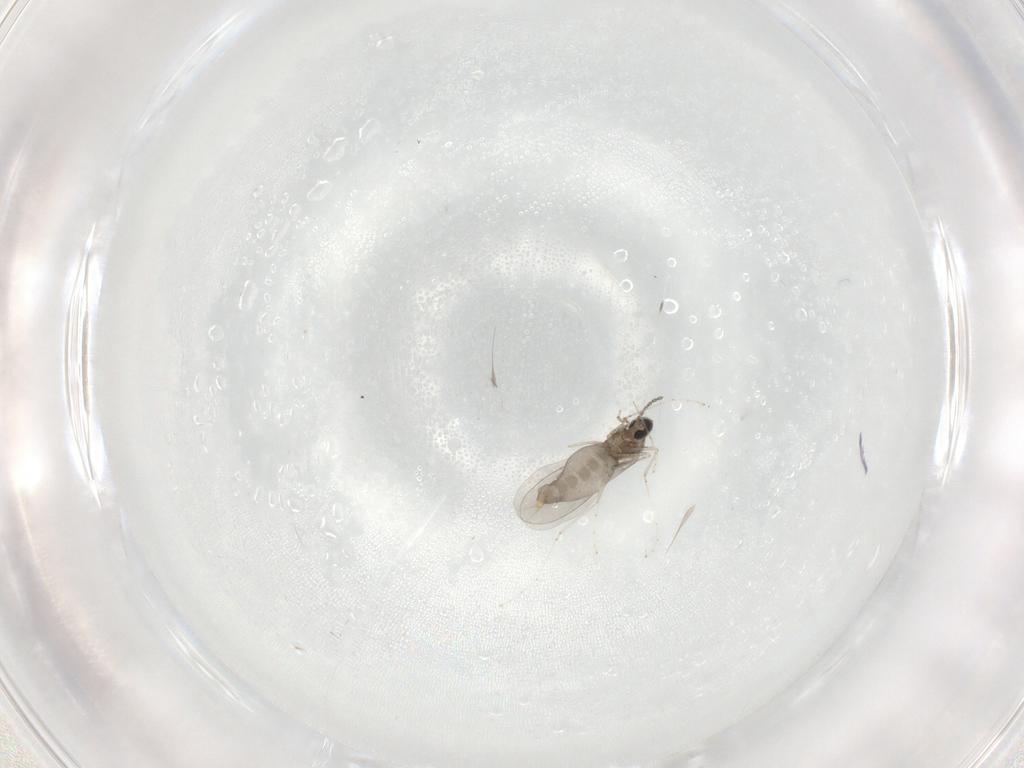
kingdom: Animalia
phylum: Arthropoda
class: Insecta
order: Diptera
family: Cecidomyiidae
